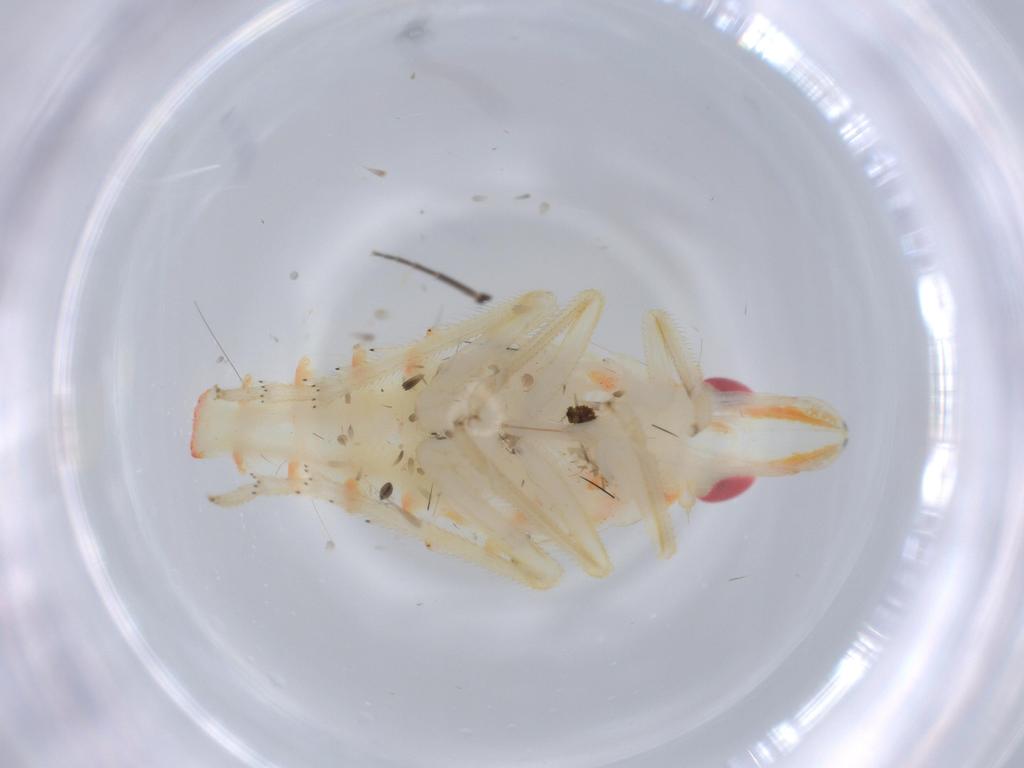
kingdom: Animalia
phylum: Arthropoda
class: Insecta
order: Hemiptera
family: Tropiduchidae
